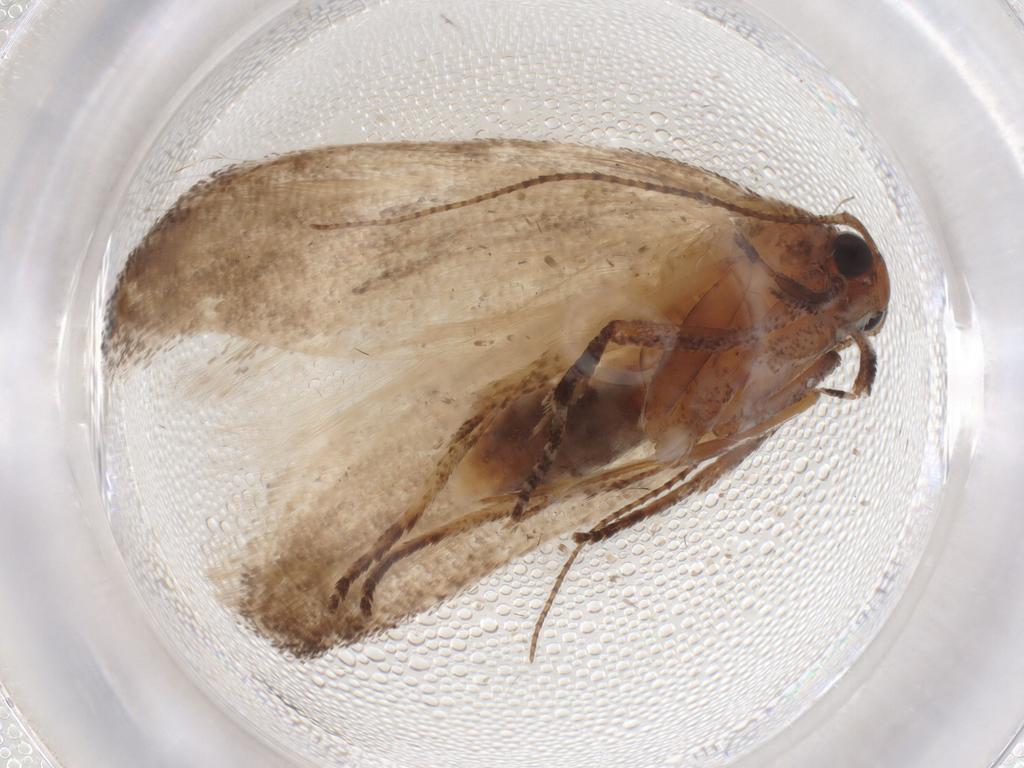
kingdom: Animalia
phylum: Arthropoda
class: Insecta
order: Lepidoptera
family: Cosmopterigidae
